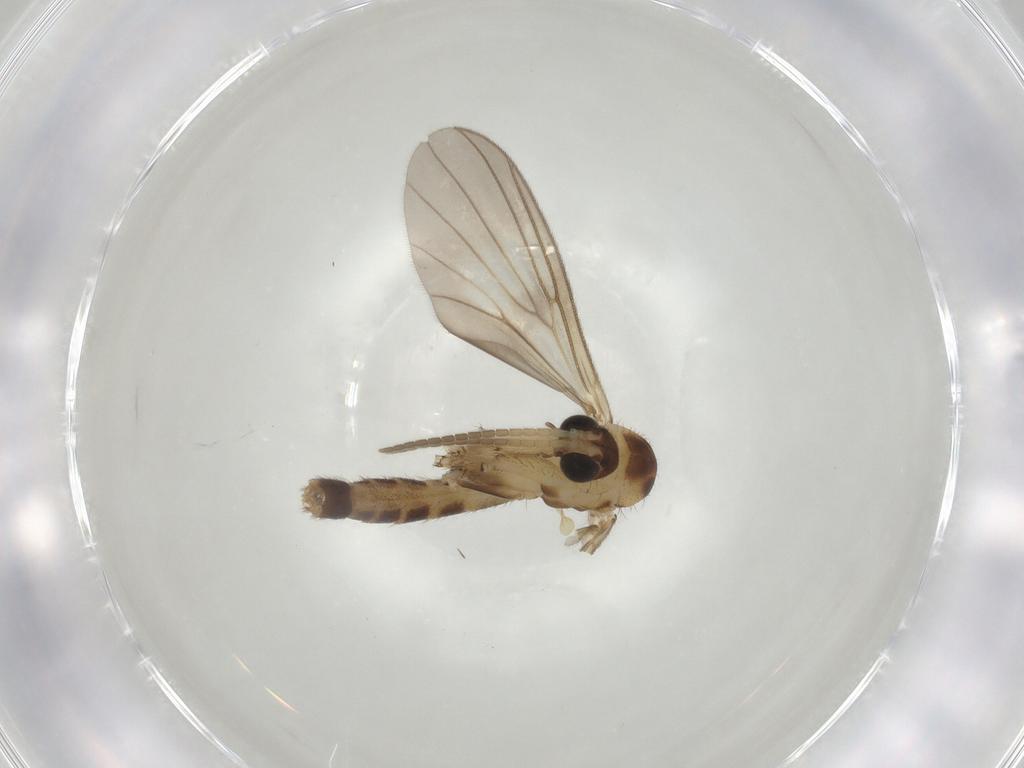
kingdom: Animalia
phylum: Arthropoda
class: Insecta
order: Diptera
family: Mycetophilidae
